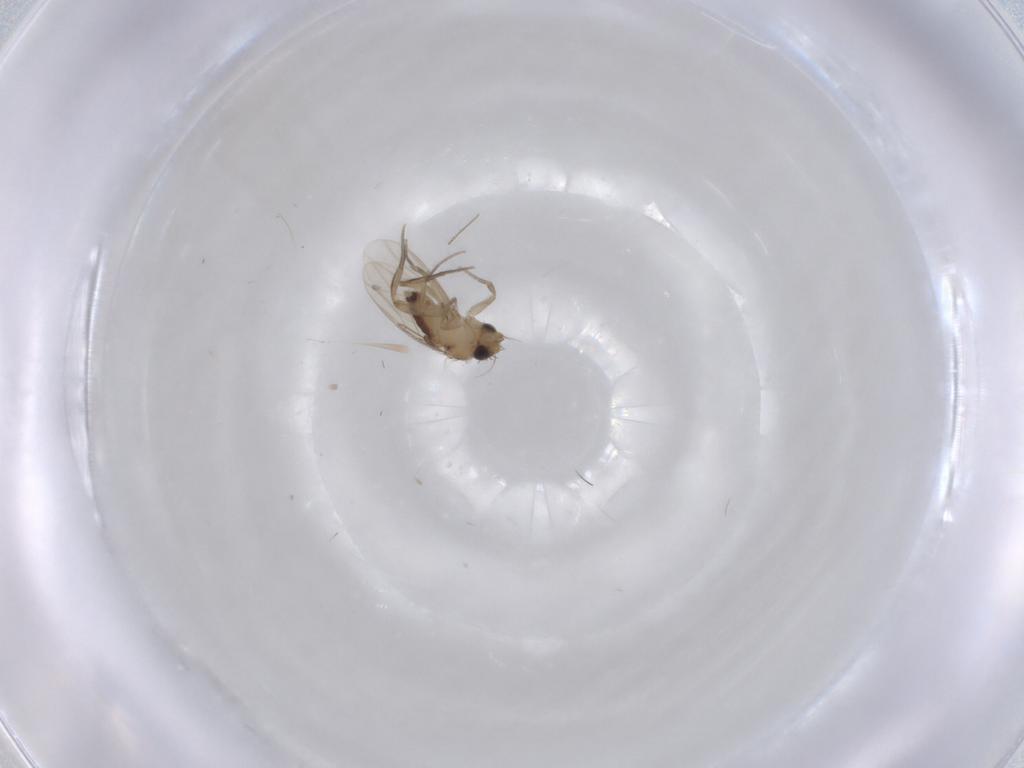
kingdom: Animalia
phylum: Arthropoda
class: Insecta
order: Diptera
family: Phoridae
